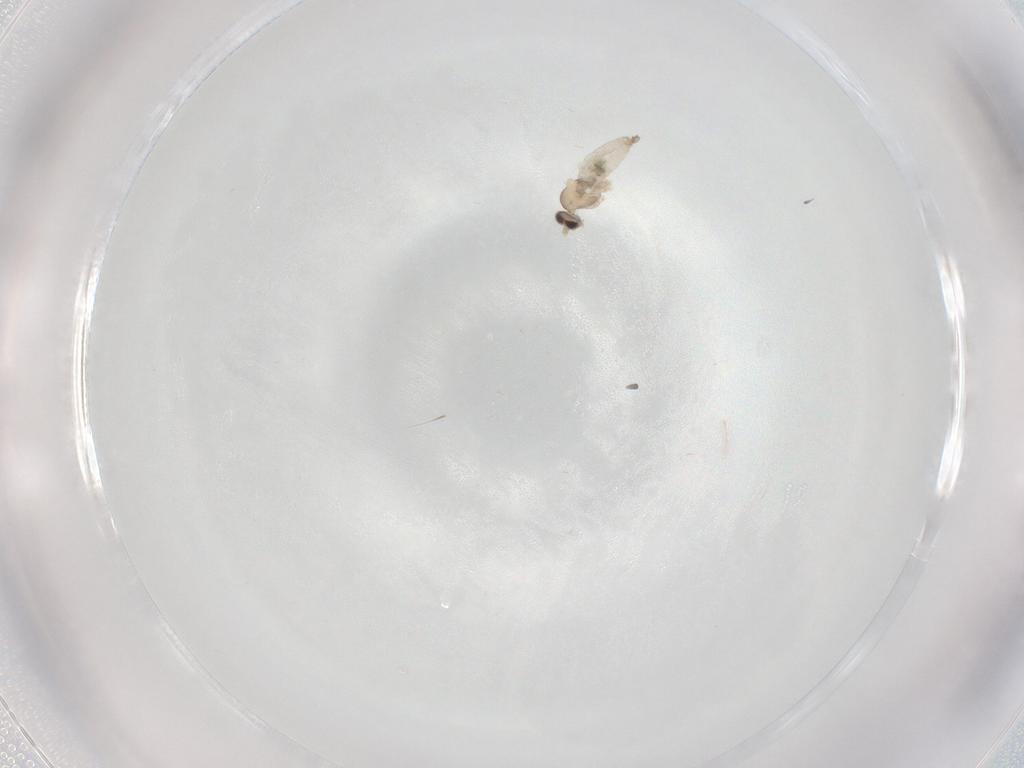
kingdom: Animalia
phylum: Arthropoda
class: Insecta
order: Diptera
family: Cecidomyiidae
